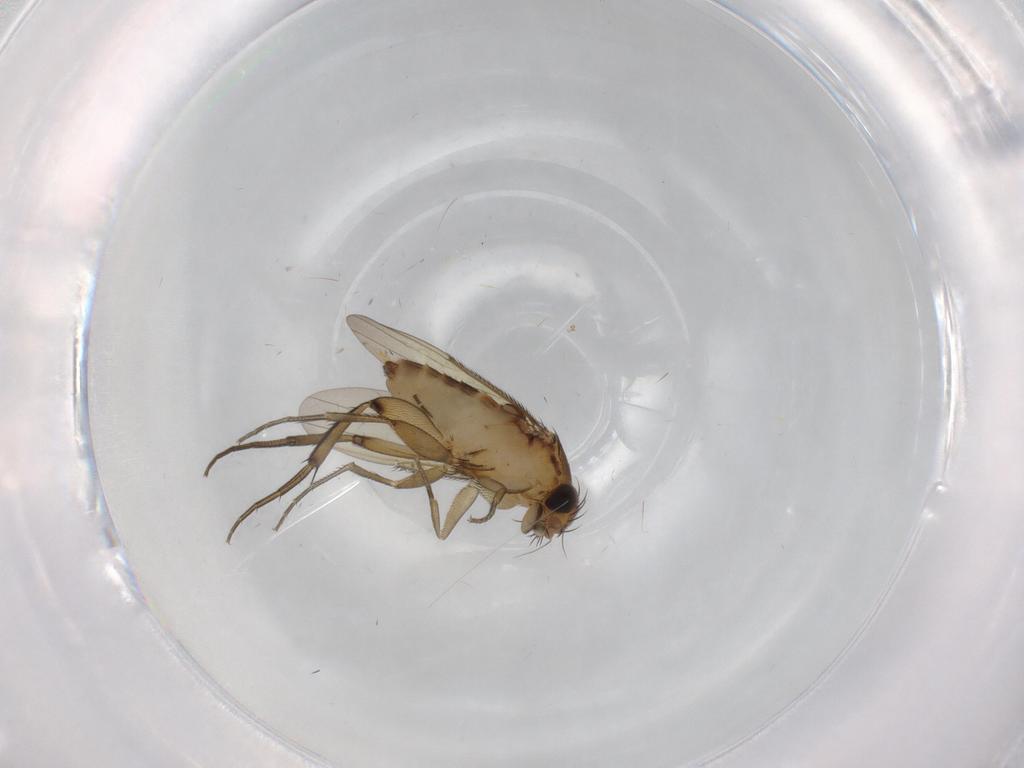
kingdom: Animalia
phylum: Arthropoda
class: Insecta
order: Diptera
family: Phoridae
